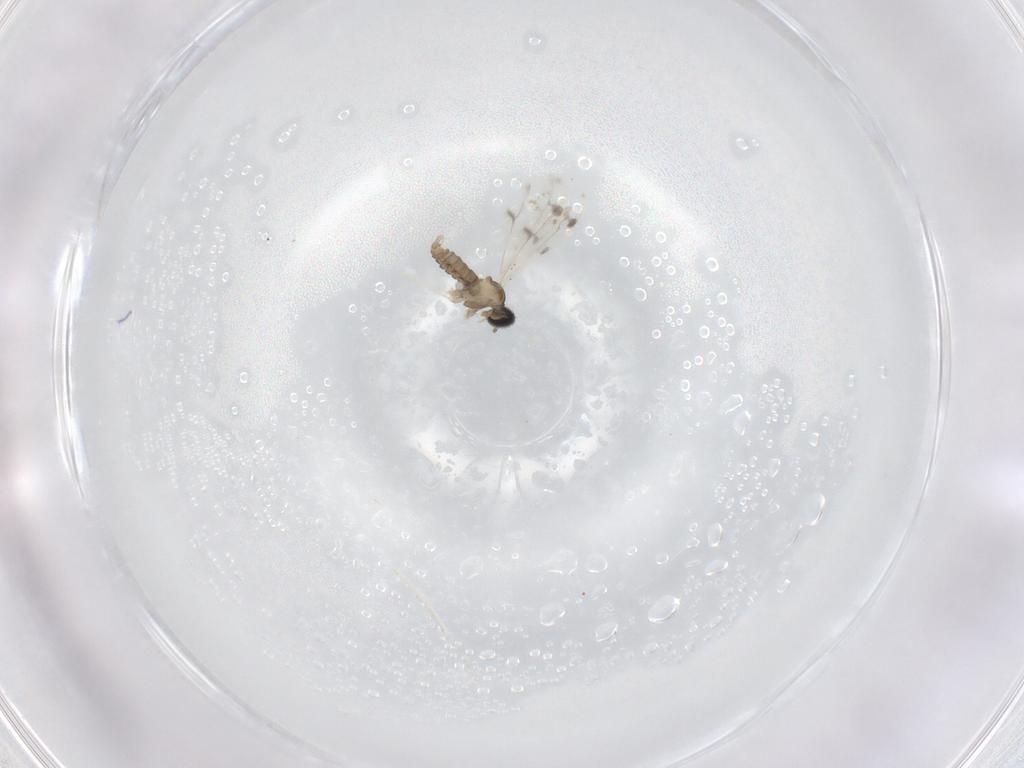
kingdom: Animalia
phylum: Arthropoda
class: Insecta
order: Diptera
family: Cecidomyiidae
